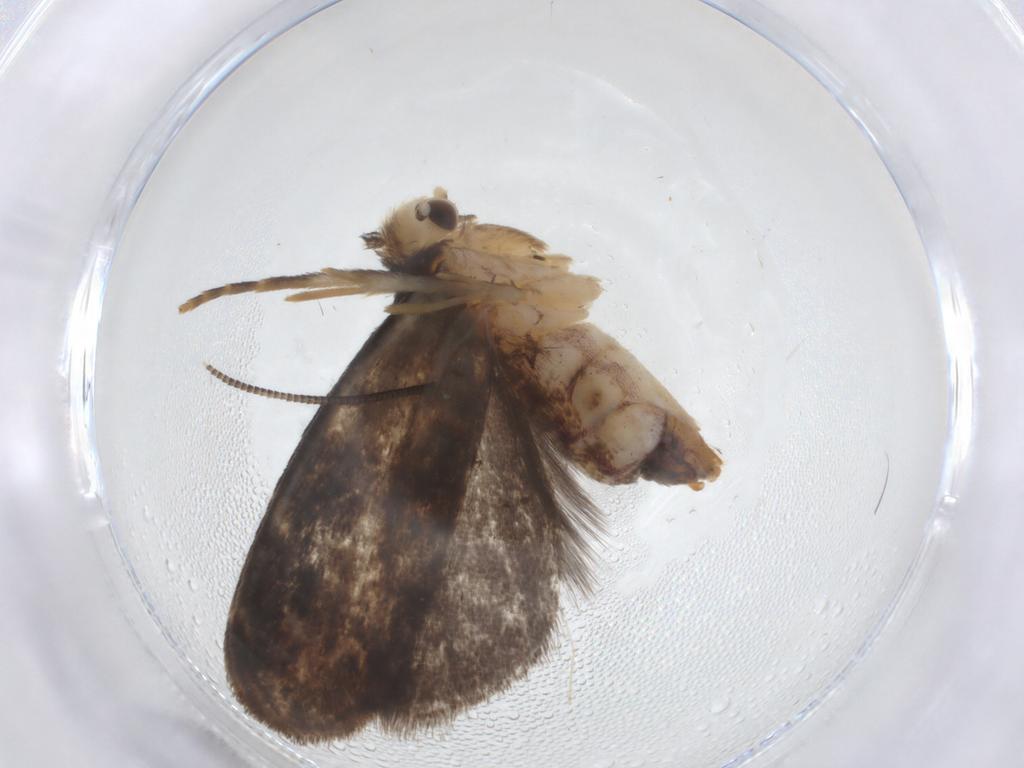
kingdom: Animalia
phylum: Arthropoda
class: Insecta
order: Lepidoptera
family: Dryadaulidae
